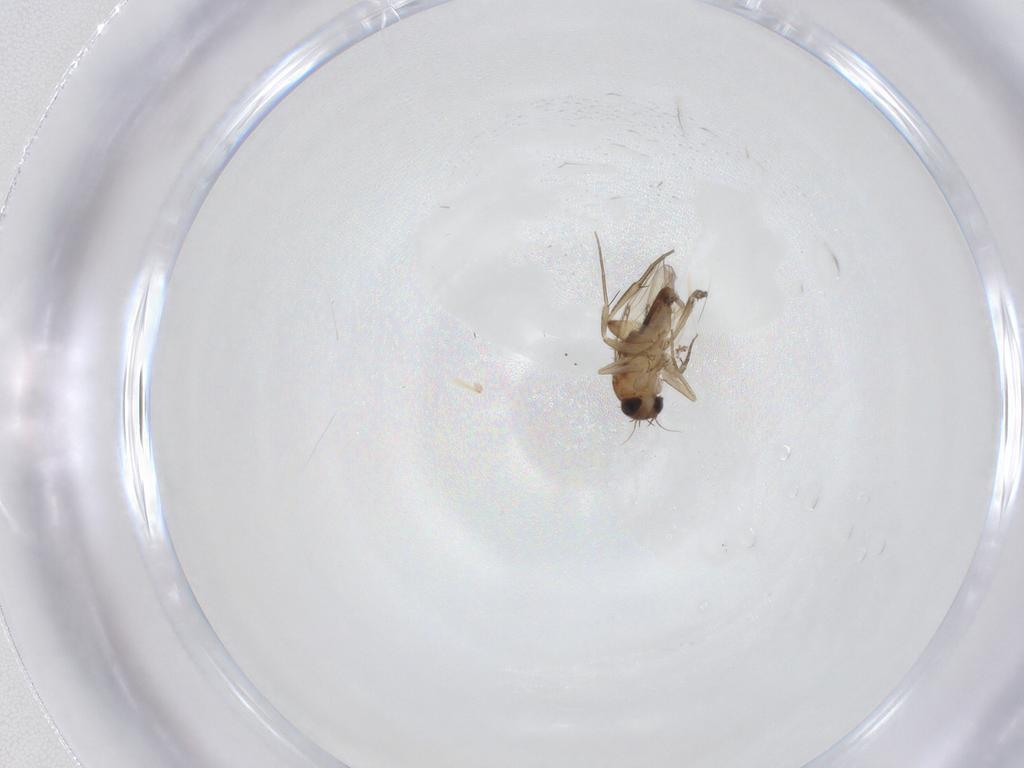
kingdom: Animalia
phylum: Arthropoda
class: Insecta
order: Diptera
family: Phoridae
